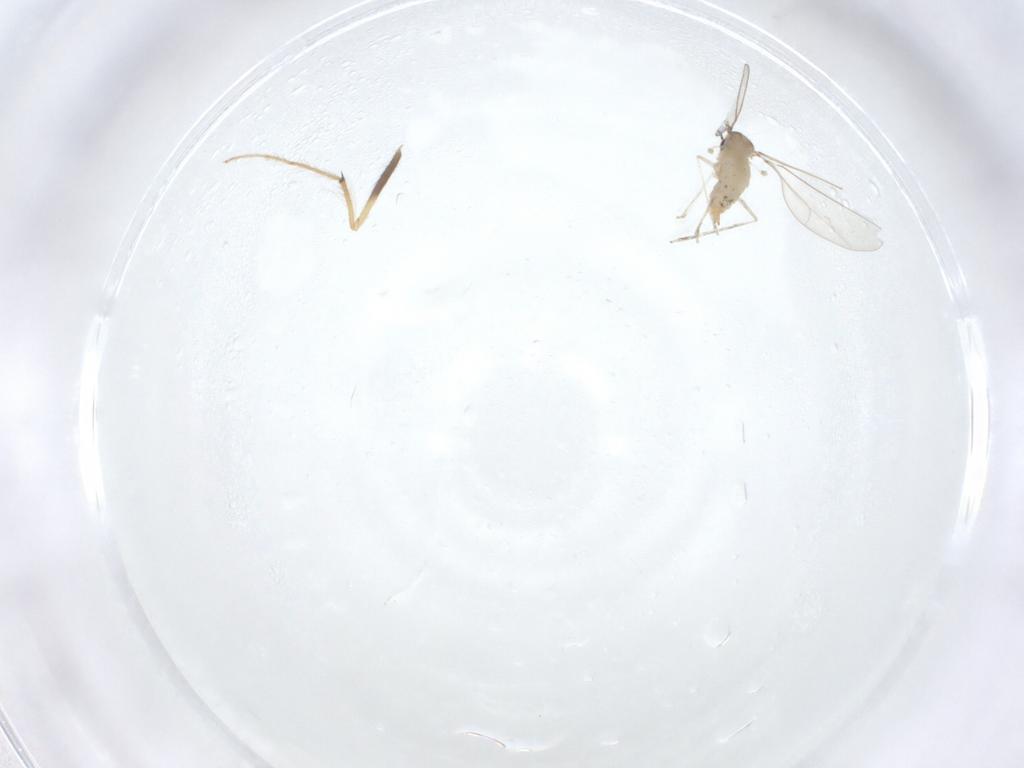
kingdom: Animalia
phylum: Arthropoda
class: Insecta
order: Diptera
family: Chironomidae
